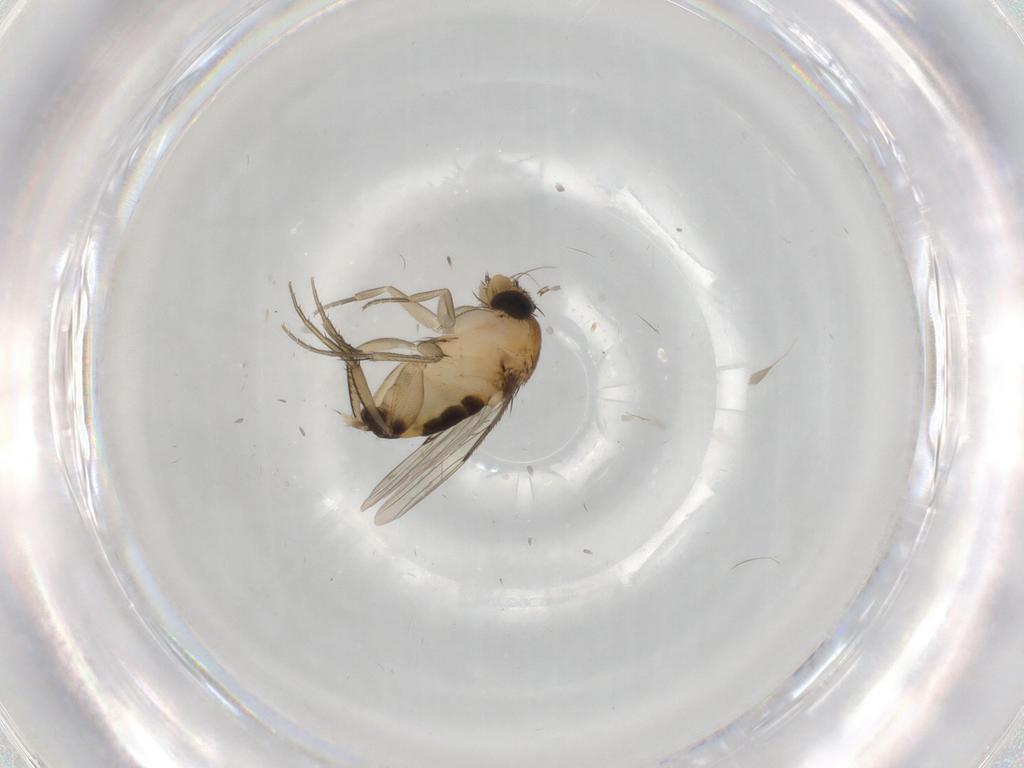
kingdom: Animalia
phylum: Arthropoda
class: Insecta
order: Diptera
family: Phoridae
